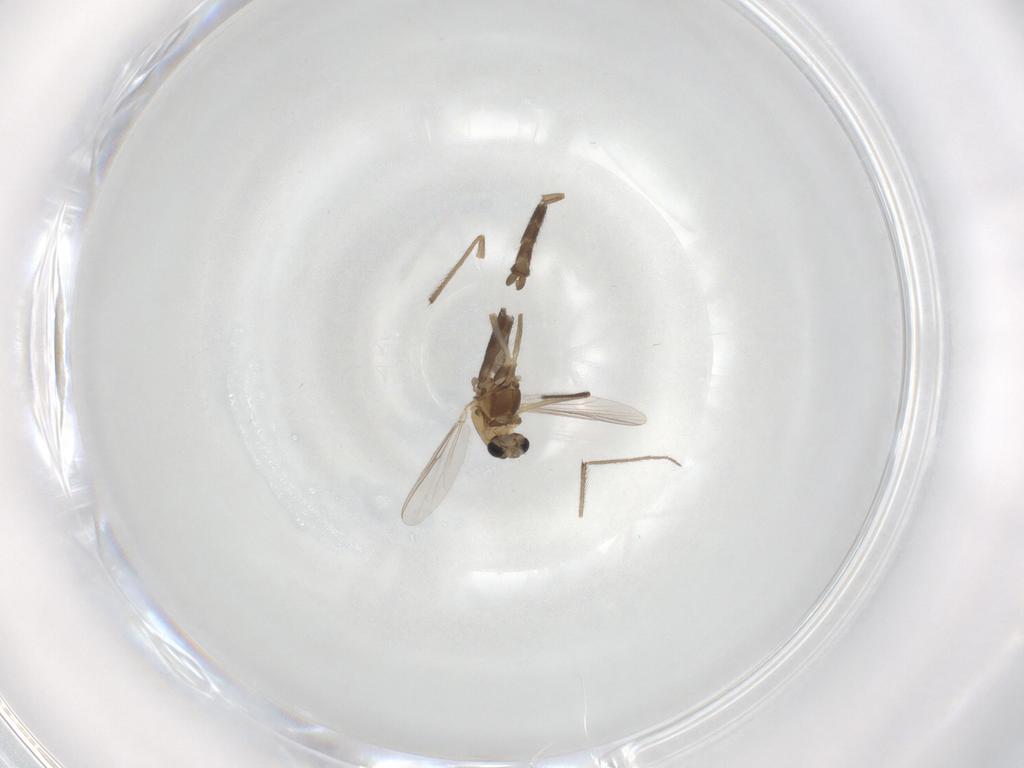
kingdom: Animalia
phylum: Arthropoda
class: Insecta
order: Diptera
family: Chironomidae
